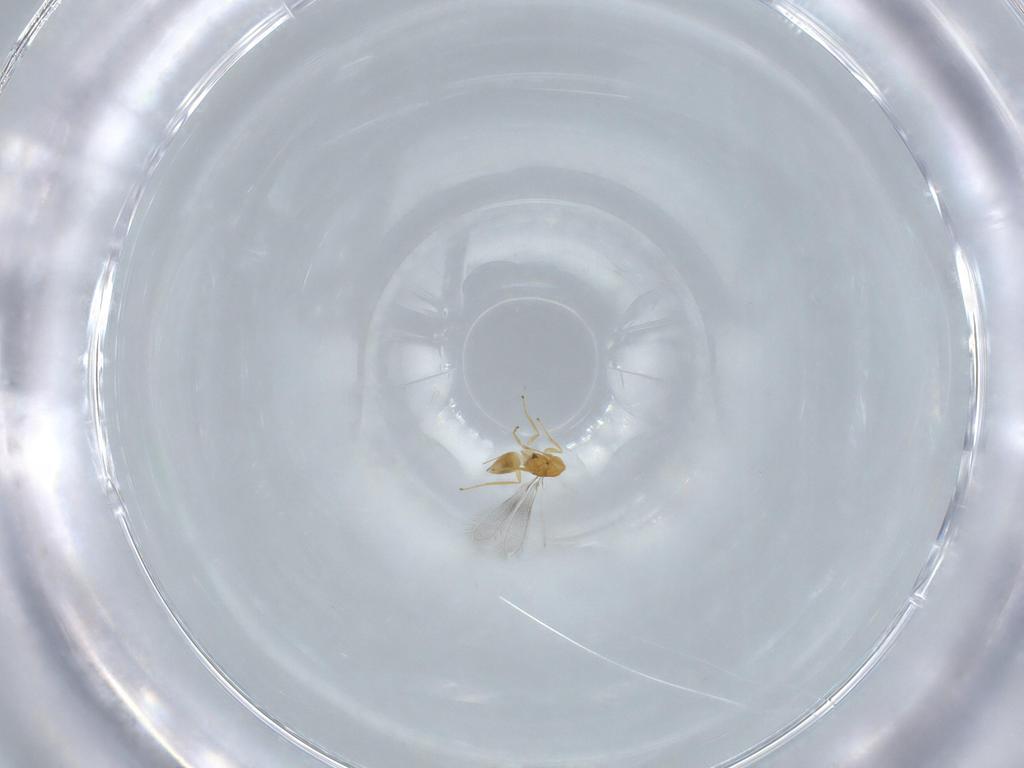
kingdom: Animalia
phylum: Arthropoda
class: Insecta
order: Hymenoptera
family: Mymaridae
